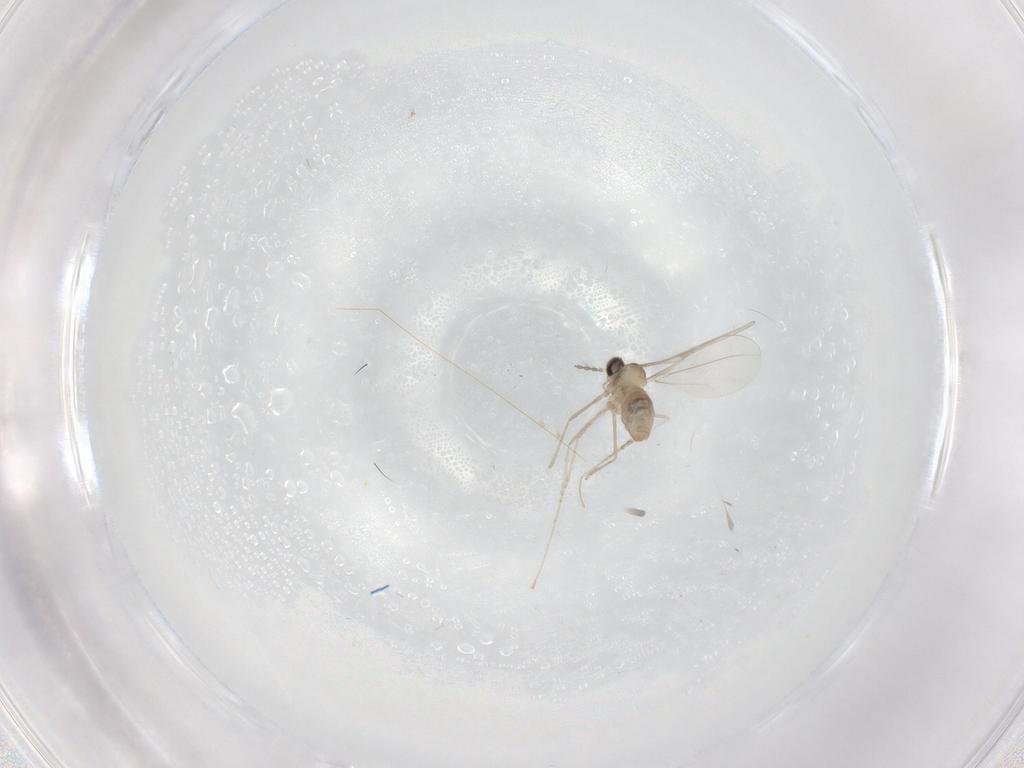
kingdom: Animalia
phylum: Arthropoda
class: Insecta
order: Diptera
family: Cecidomyiidae
